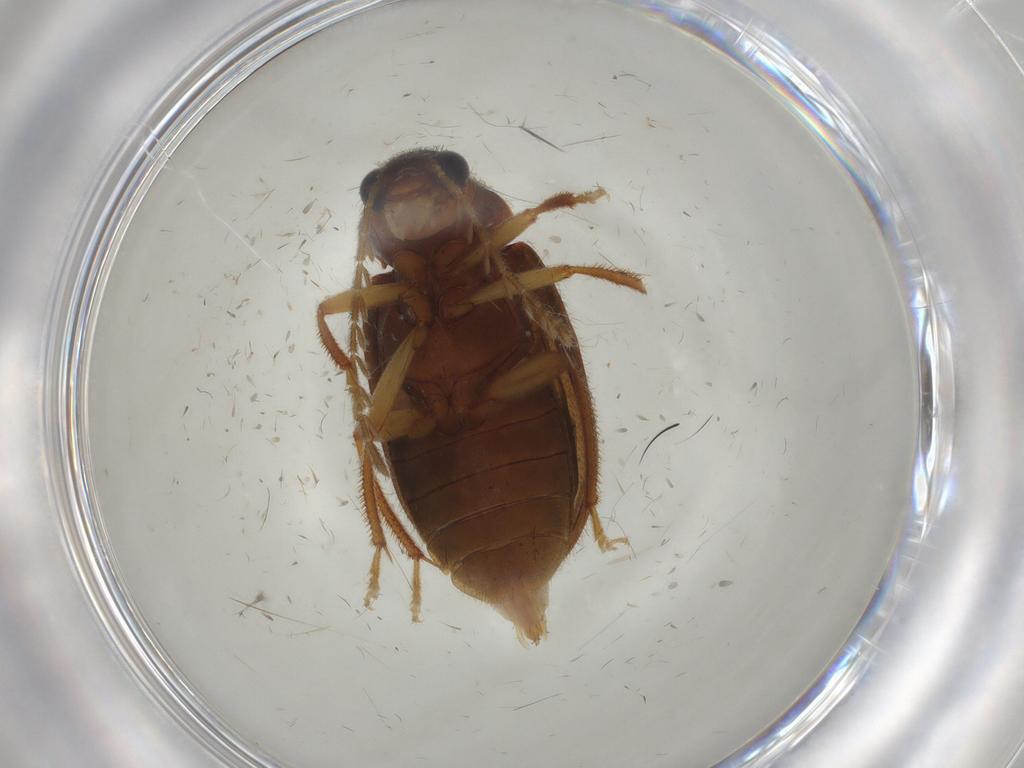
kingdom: Animalia
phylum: Arthropoda
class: Insecta
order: Coleoptera
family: Ptilodactylidae
